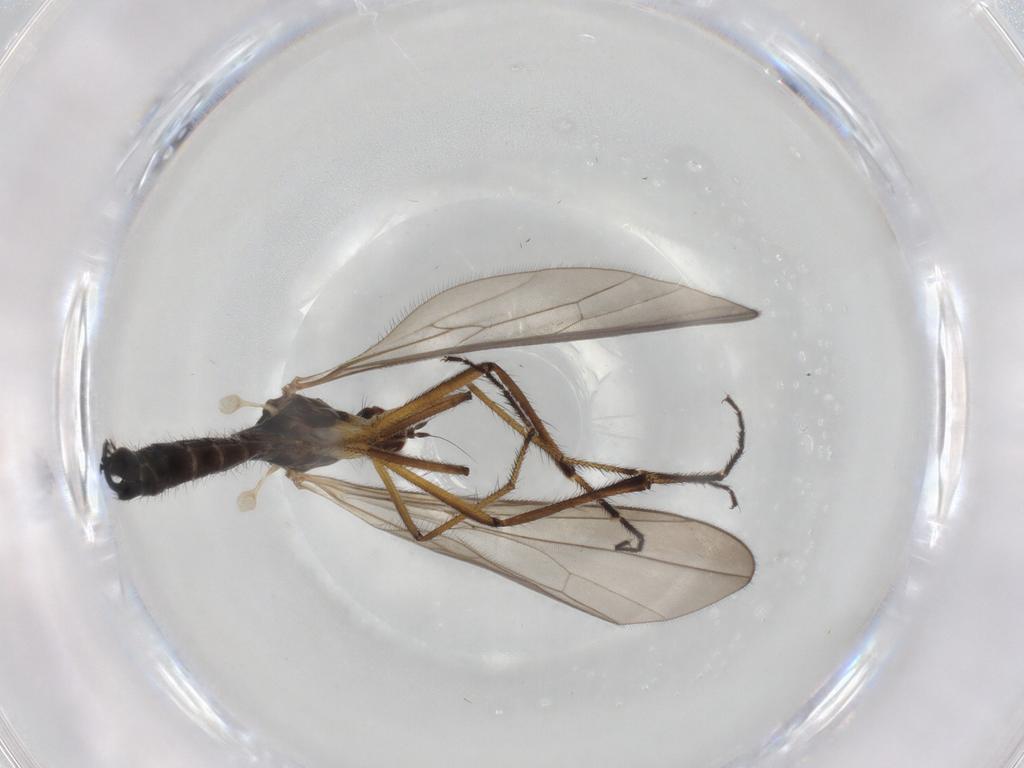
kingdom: Animalia
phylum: Arthropoda
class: Insecta
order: Diptera
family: Hybotidae
